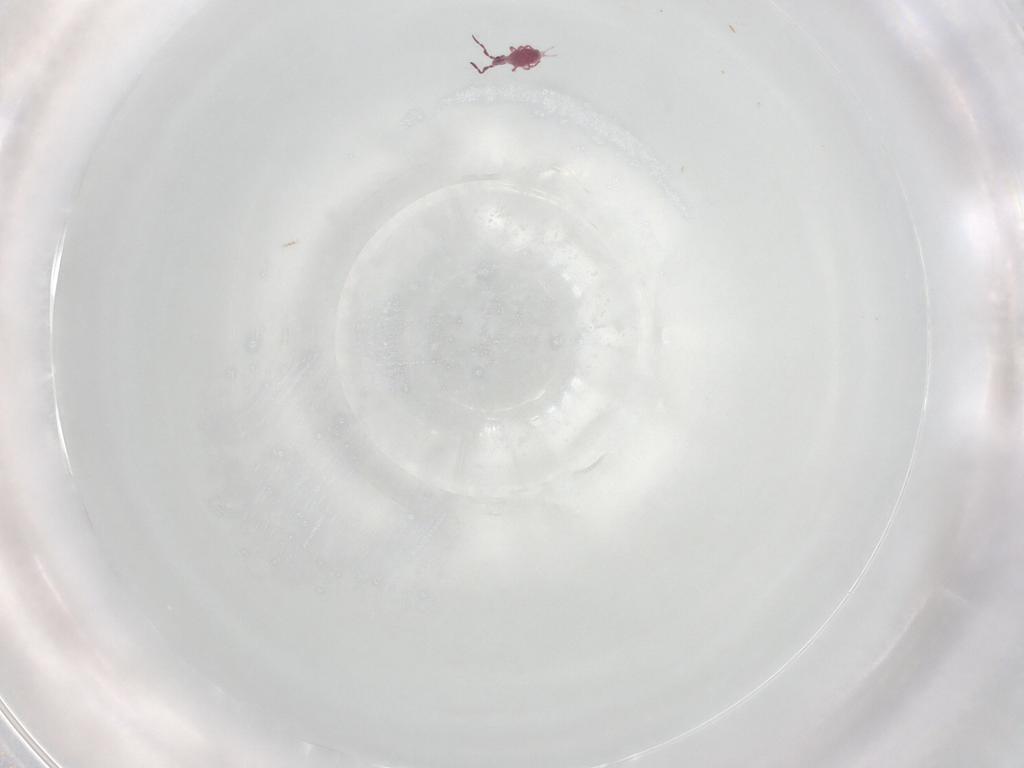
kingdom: Animalia
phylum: Arthropoda
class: Collembola
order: Symphypleona
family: Sminthurididae
